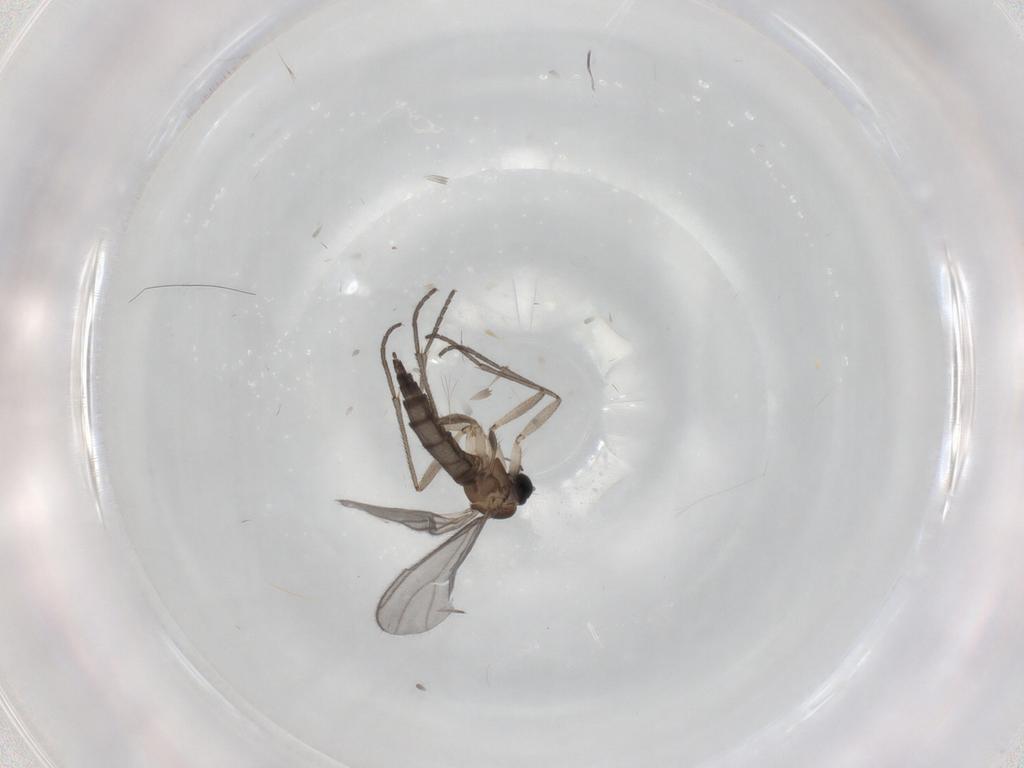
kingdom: Animalia
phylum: Arthropoda
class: Insecta
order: Diptera
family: Sciaridae
